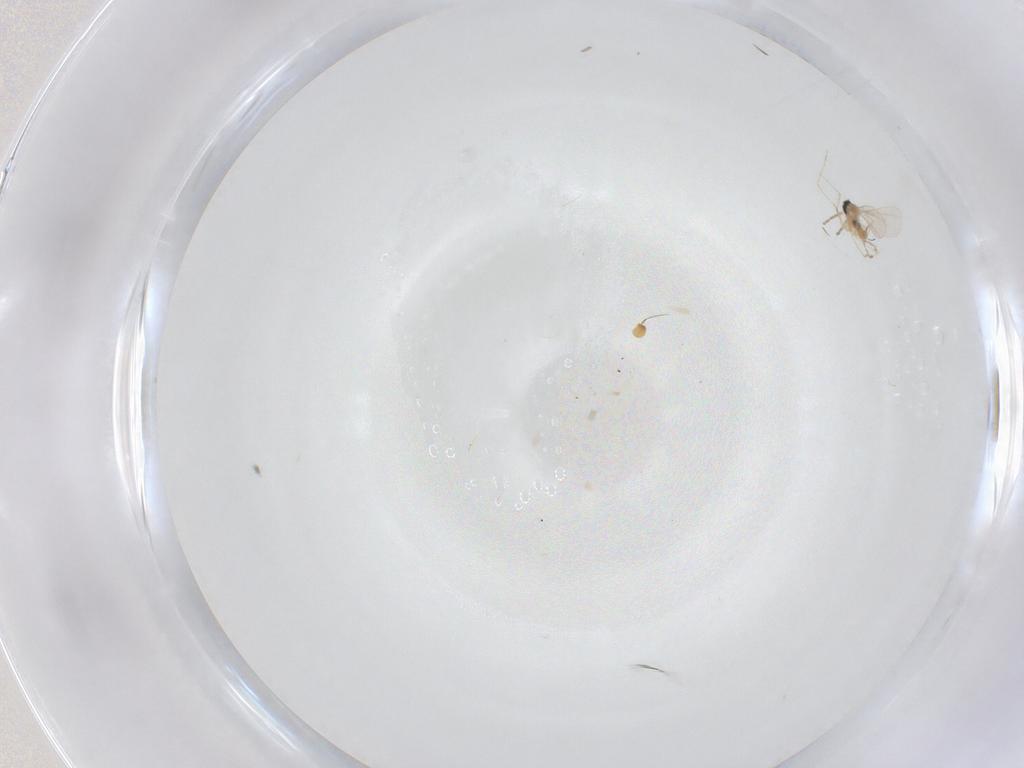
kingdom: Animalia
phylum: Arthropoda
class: Insecta
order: Diptera
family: Chloropidae
